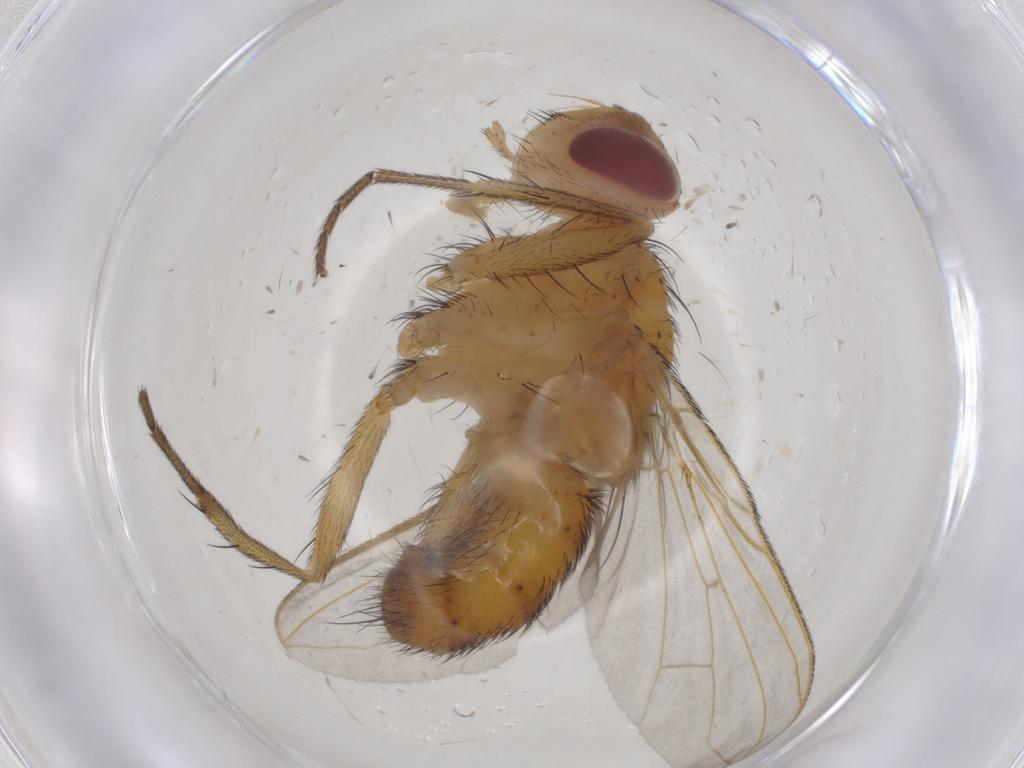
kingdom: Animalia
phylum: Arthropoda
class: Insecta
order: Diptera
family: Tachinidae
